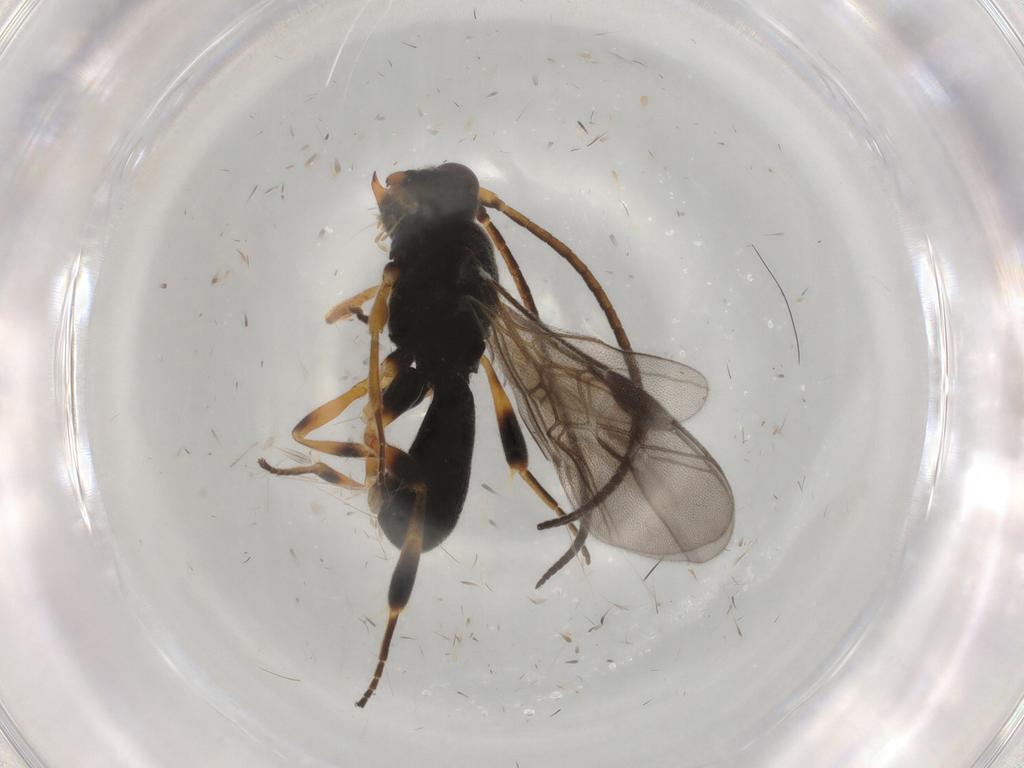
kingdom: Animalia
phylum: Arthropoda
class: Insecta
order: Hymenoptera
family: Braconidae
